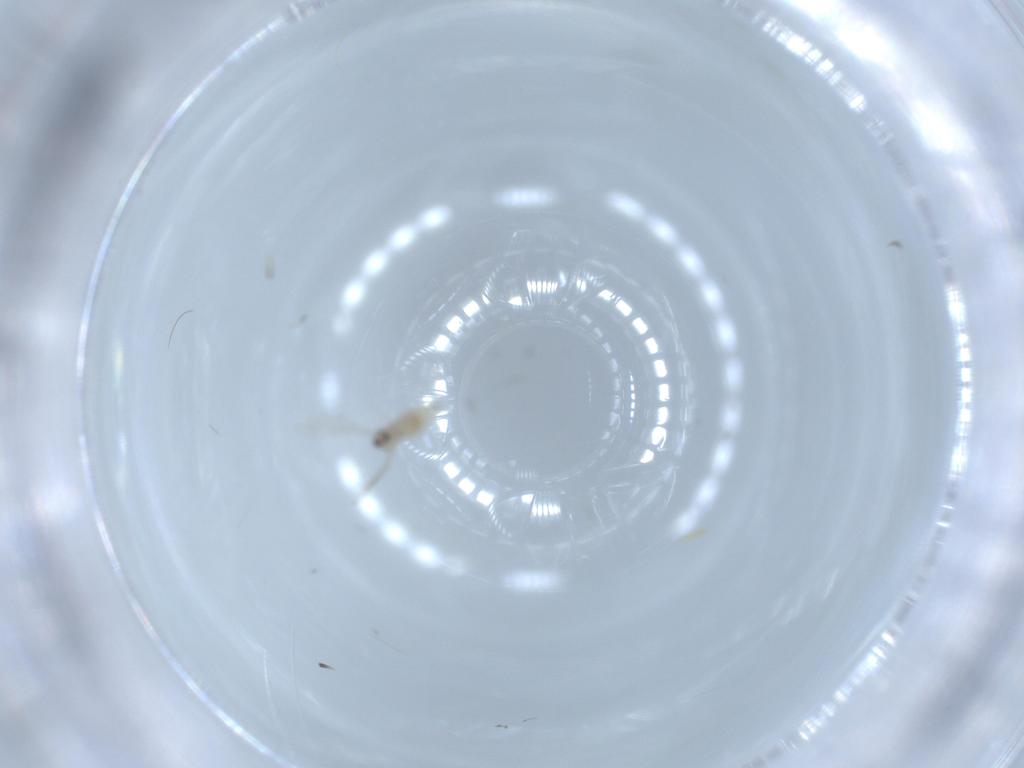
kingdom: Animalia
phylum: Arthropoda
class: Insecta
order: Diptera
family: Cecidomyiidae
